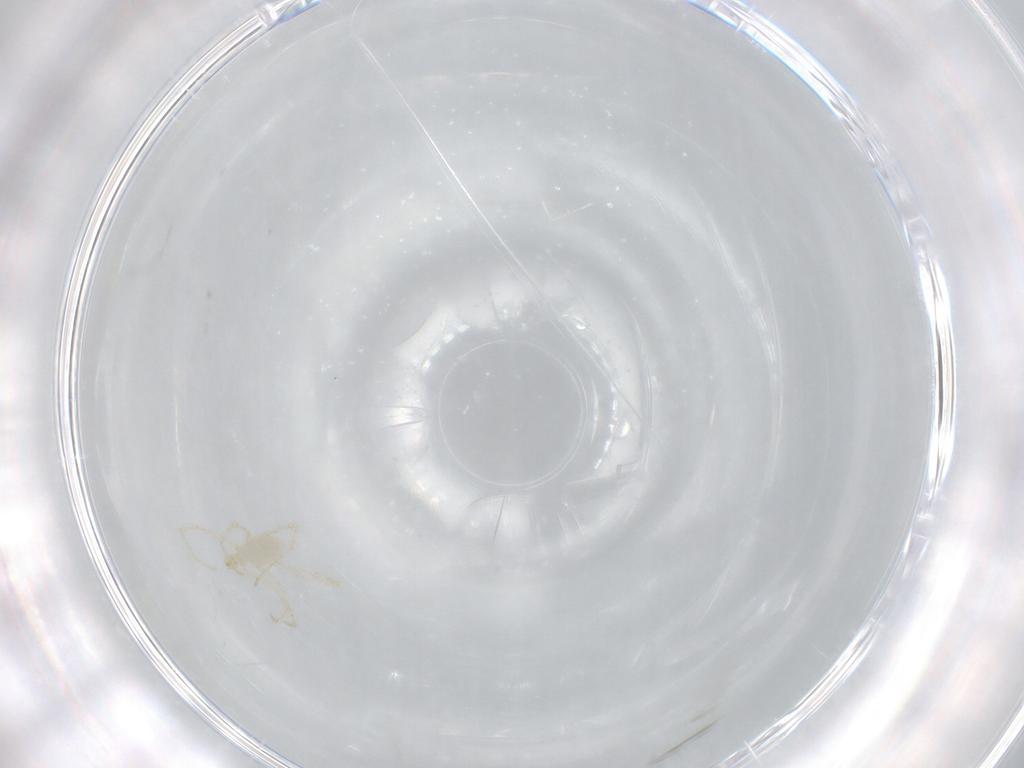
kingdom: Animalia
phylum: Arthropoda
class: Arachnida
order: Trombidiformes
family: Erythraeidae
